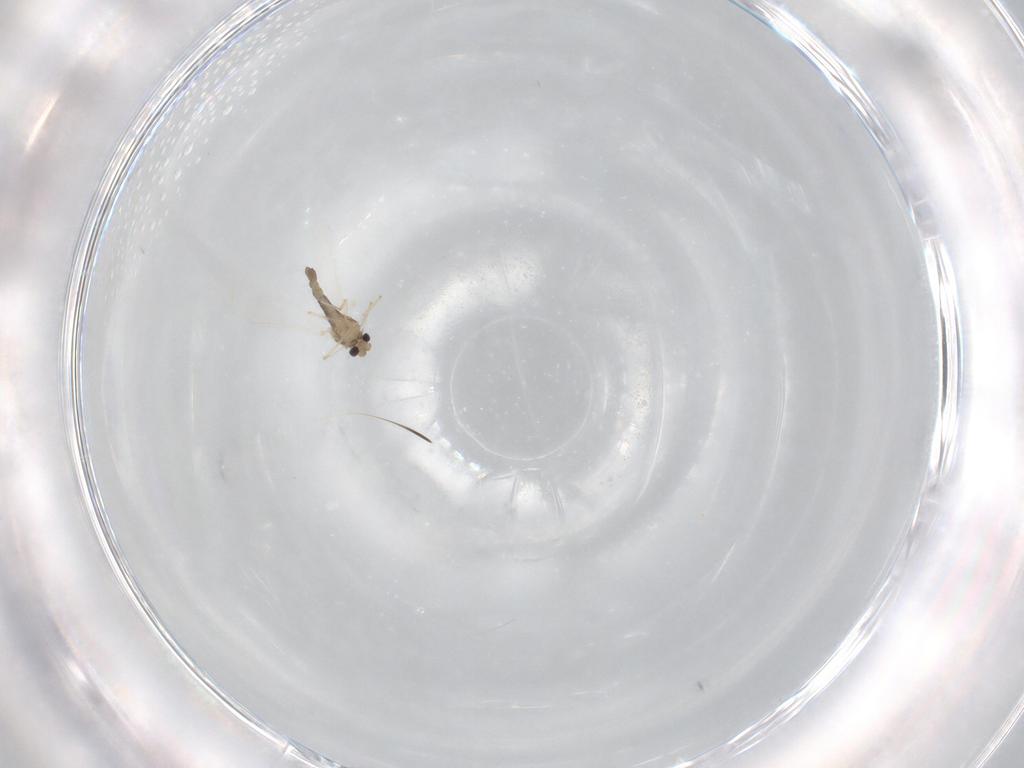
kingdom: Animalia
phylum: Arthropoda
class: Insecta
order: Diptera
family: Chironomidae
